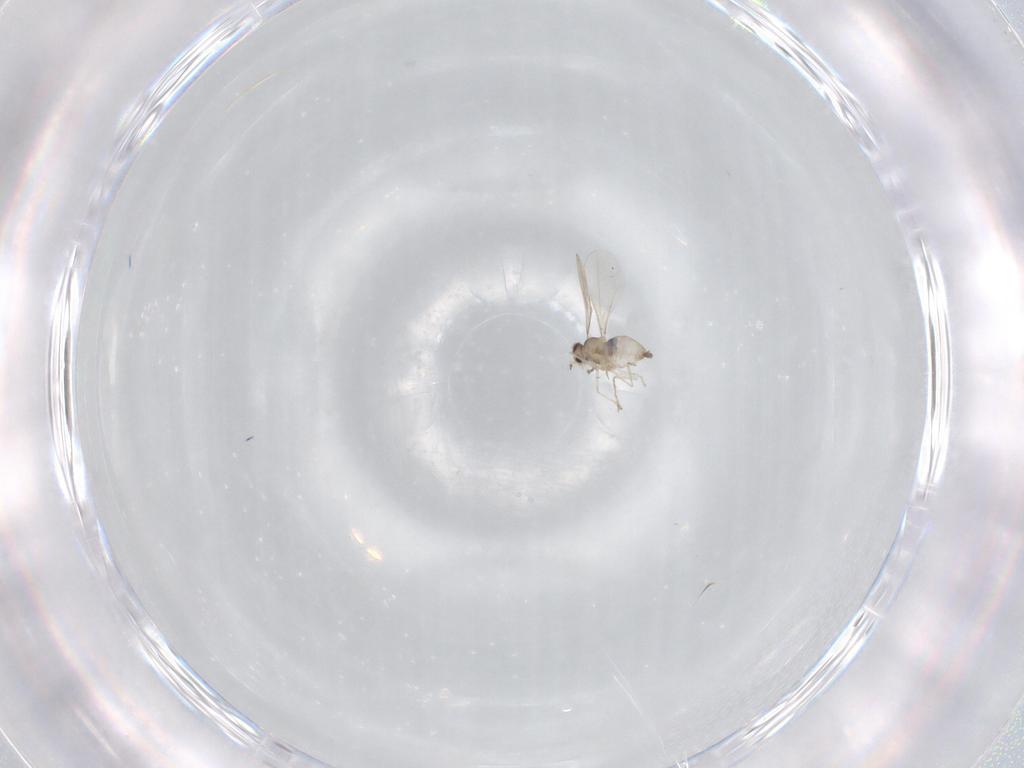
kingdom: Animalia
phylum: Arthropoda
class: Insecta
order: Diptera
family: Cecidomyiidae
